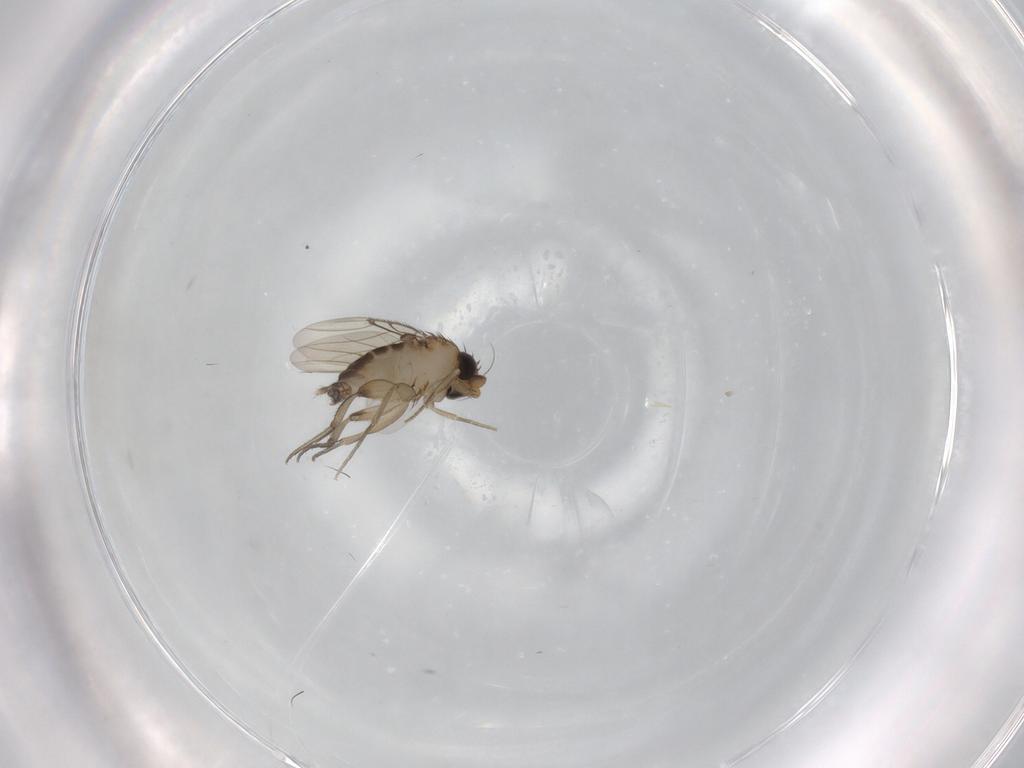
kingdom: Animalia
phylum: Arthropoda
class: Insecta
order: Diptera
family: Phoridae
